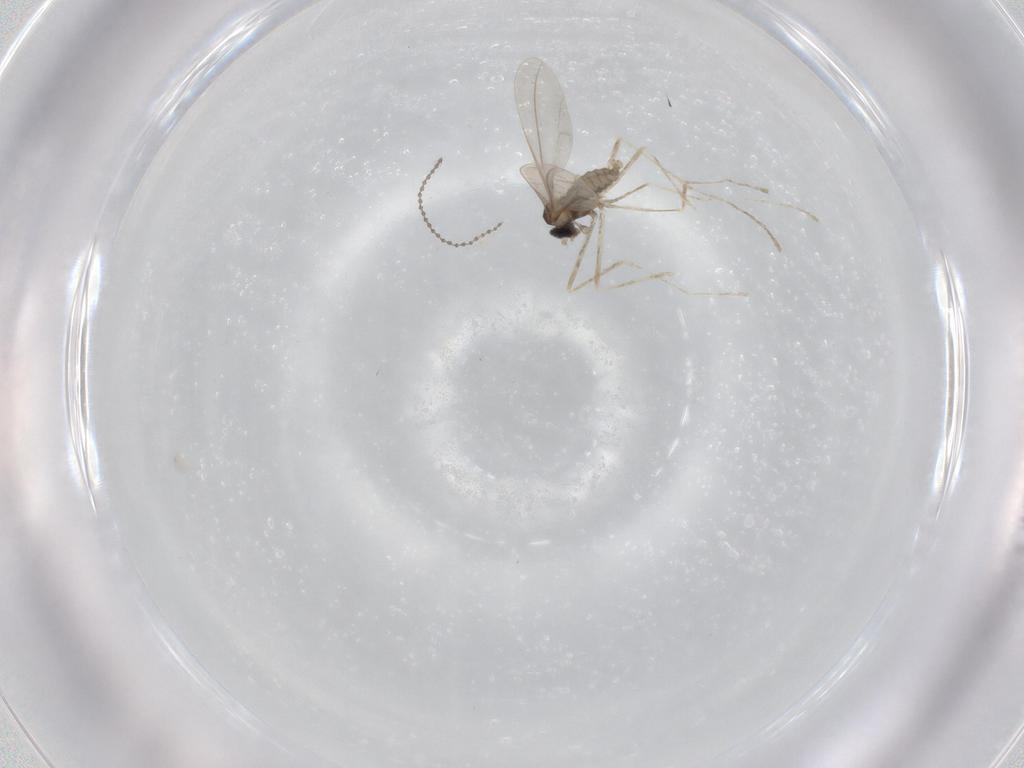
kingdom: Animalia
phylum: Arthropoda
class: Insecta
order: Diptera
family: Cecidomyiidae
